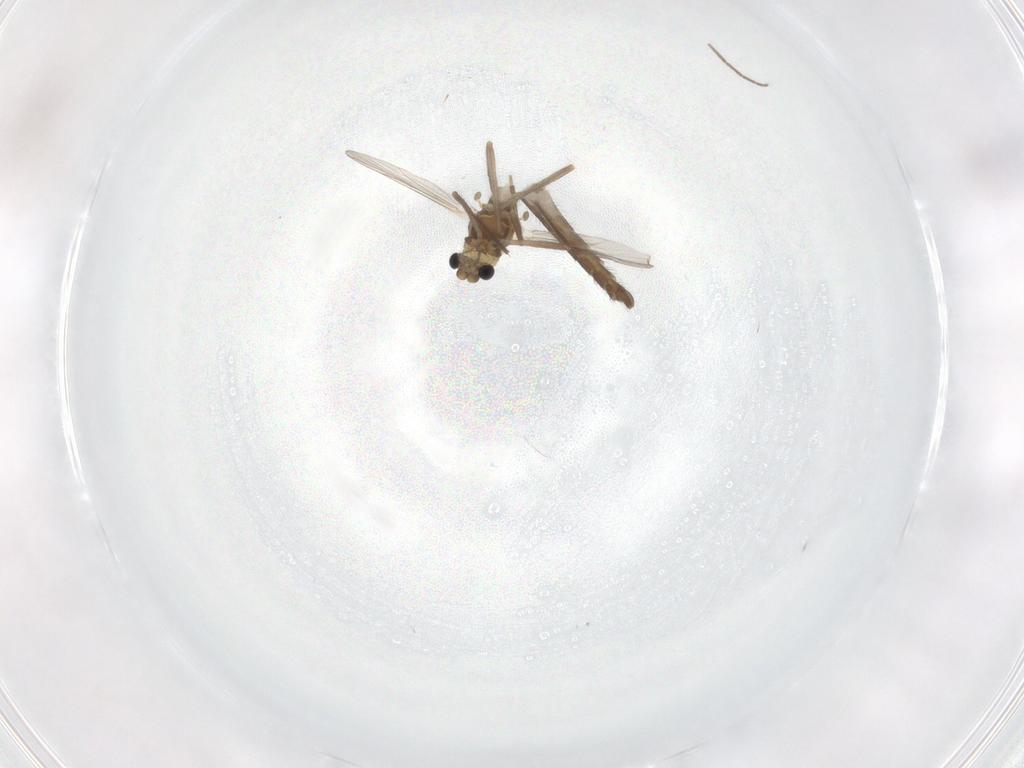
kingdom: Animalia
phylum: Arthropoda
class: Insecta
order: Diptera
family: Chironomidae
